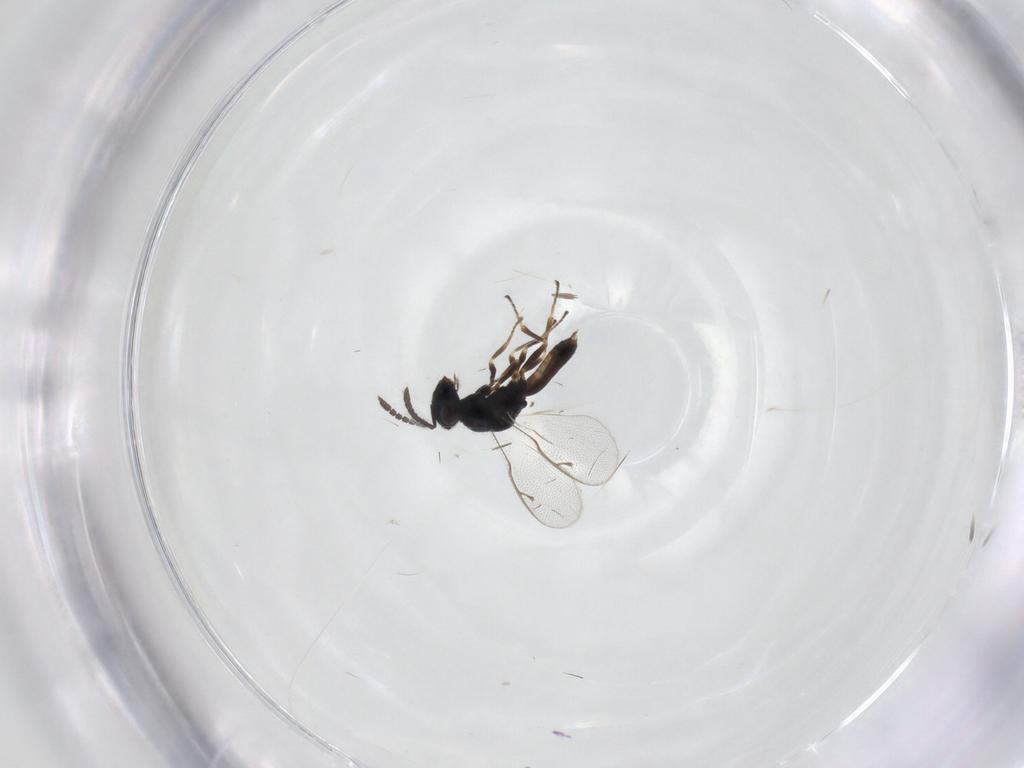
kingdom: Animalia
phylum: Arthropoda
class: Insecta
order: Hymenoptera
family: Pteromalidae
